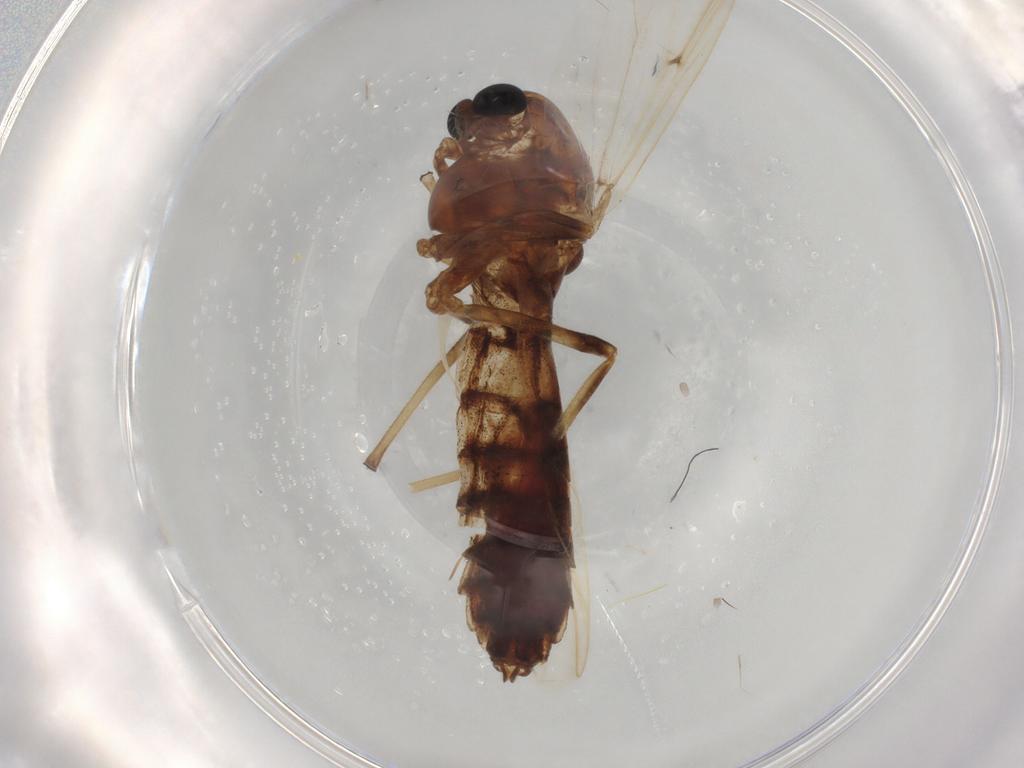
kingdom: Animalia
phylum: Arthropoda
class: Insecta
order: Diptera
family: Chironomidae
